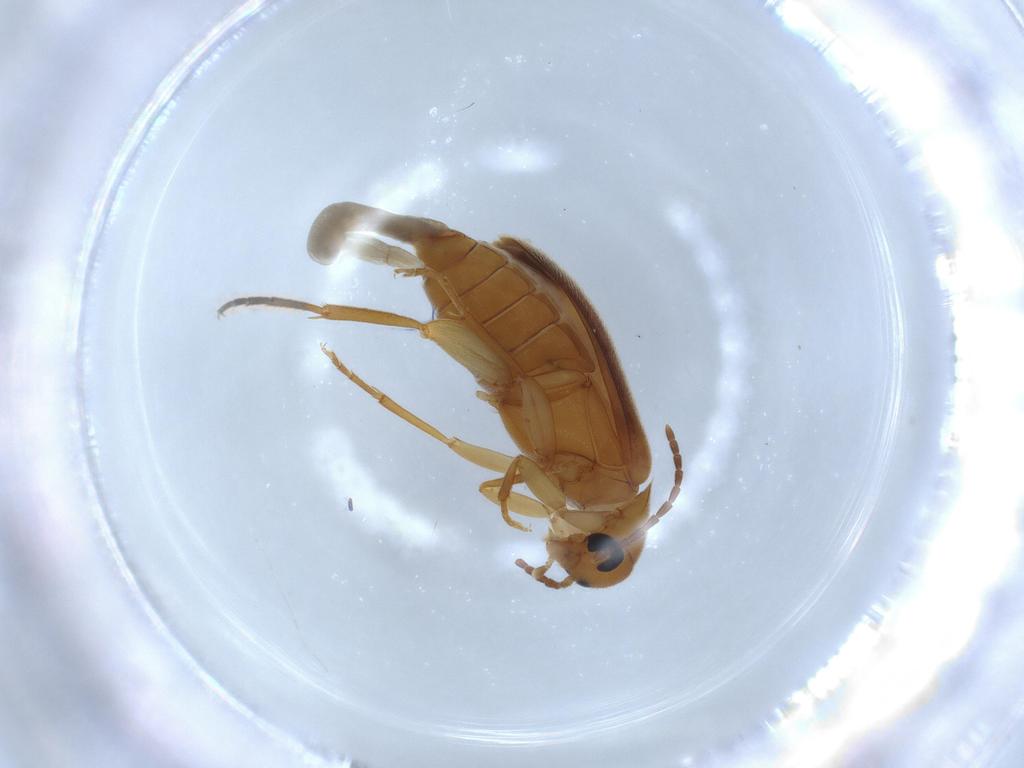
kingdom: Animalia
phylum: Arthropoda
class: Insecta
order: Coleoptera
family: Scraptiidae
